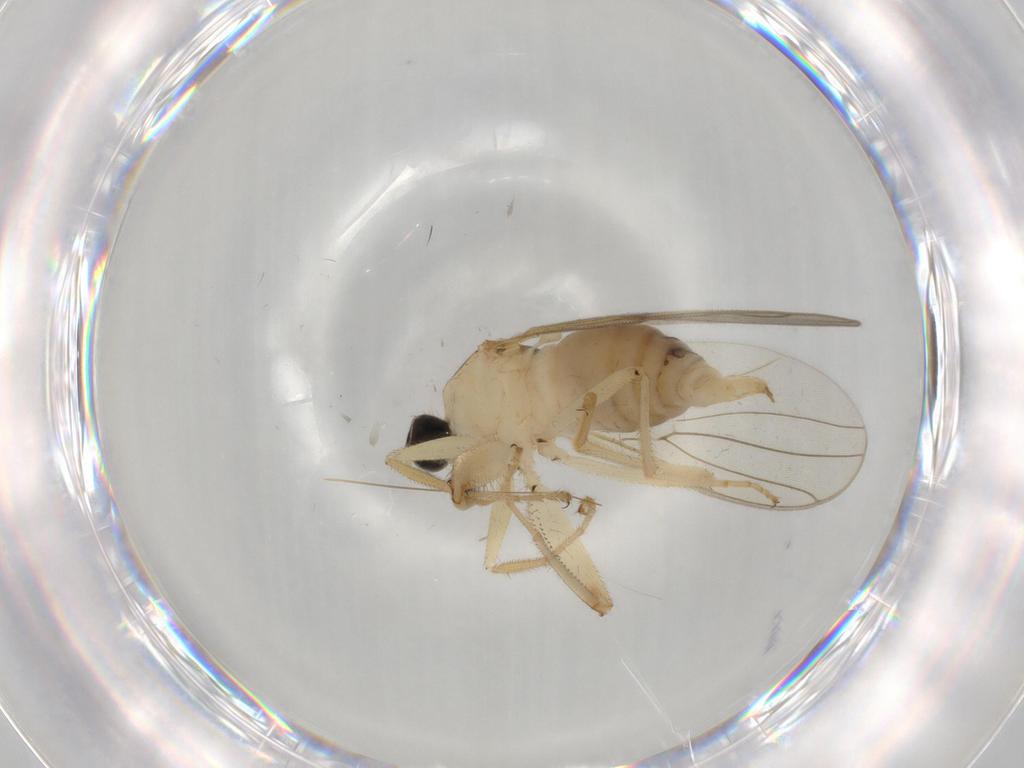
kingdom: Animalia
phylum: Arthropoda
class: Insecta
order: Diptera
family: Hybotidae
